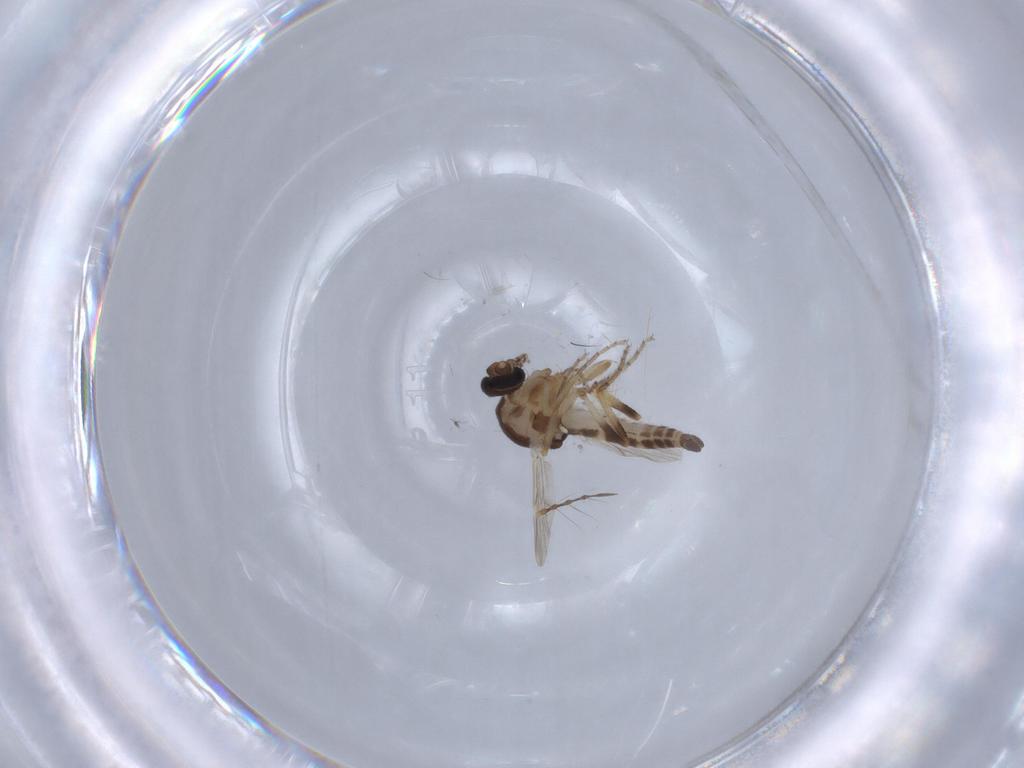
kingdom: Animalia
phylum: Arthropoda
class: Insecta
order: Diptera
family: Ceratopogonidae
